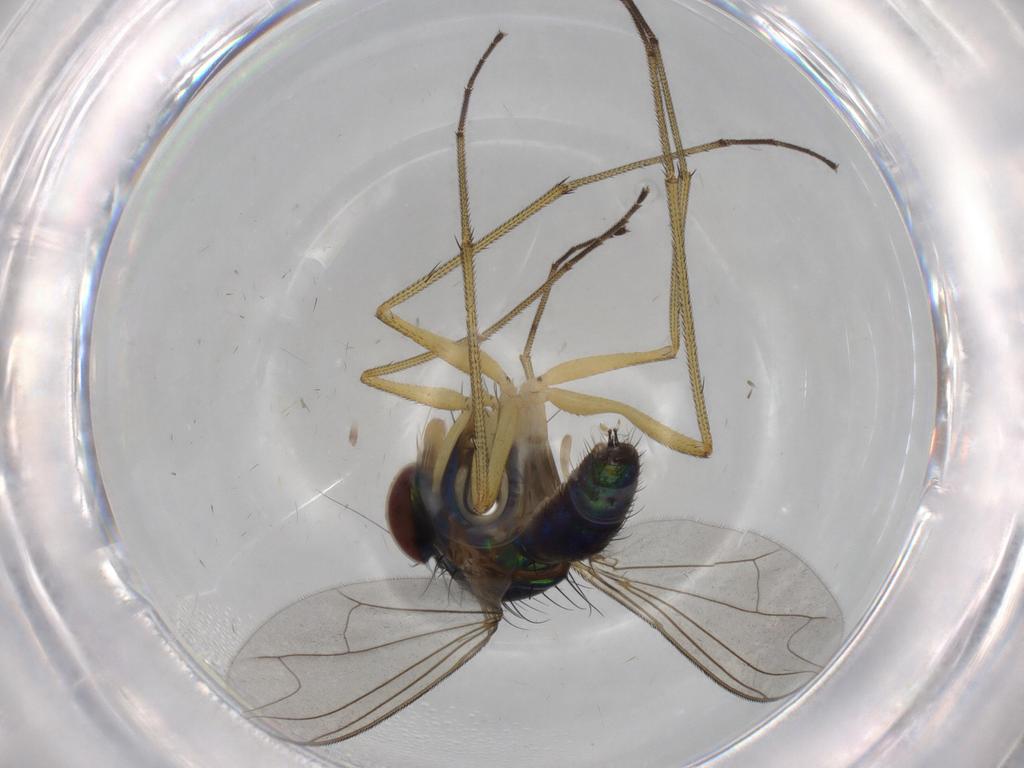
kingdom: Animalia
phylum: Arthropoda
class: Insecta
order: Diptera
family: Dolichopodidae
